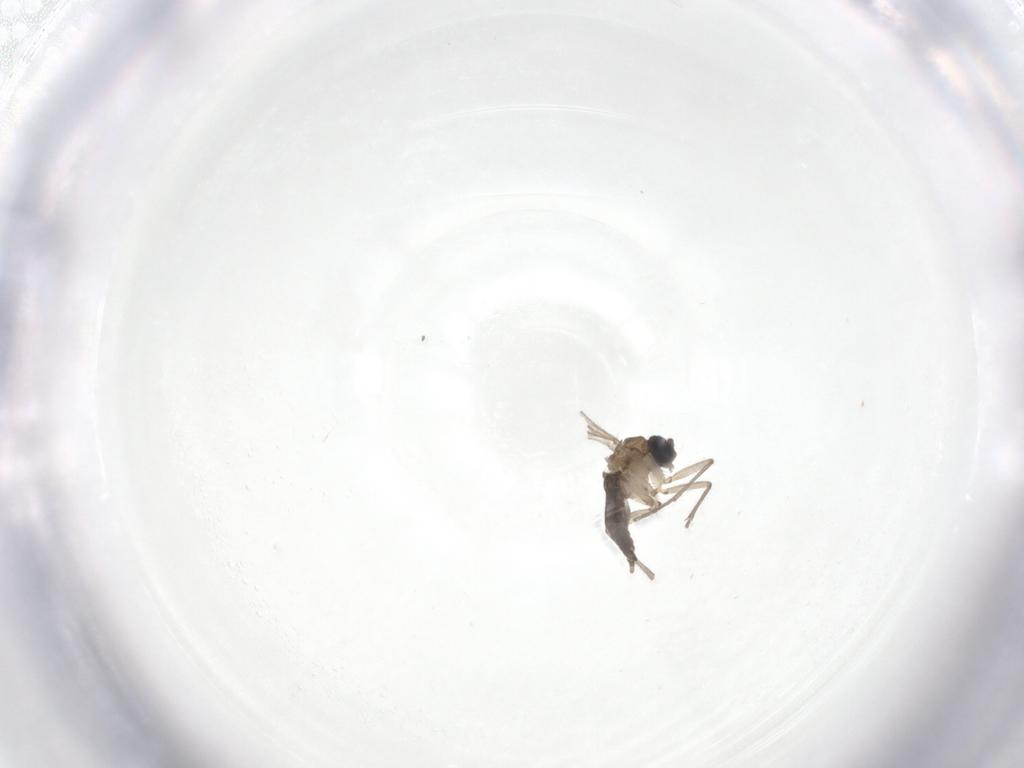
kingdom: Animalia
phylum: Arthropoda
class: Insecta
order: Diptera
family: Sciaridae
